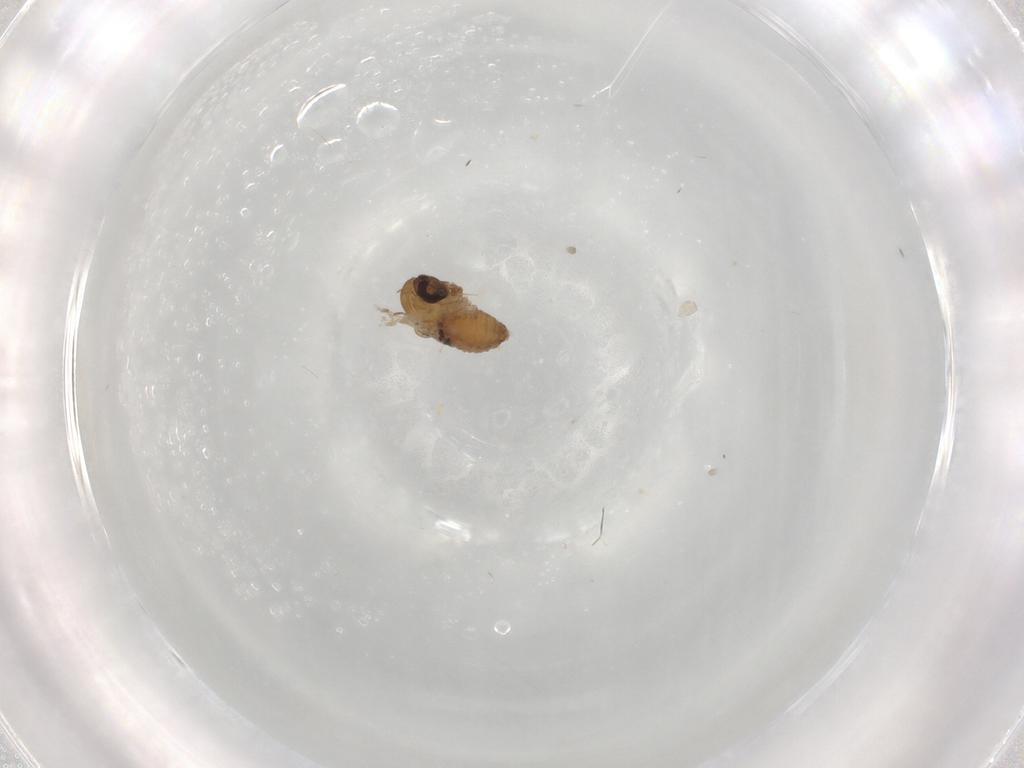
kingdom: Animalia
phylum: Arthropoda
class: Insecta
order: Diptera
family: Psychodidae
